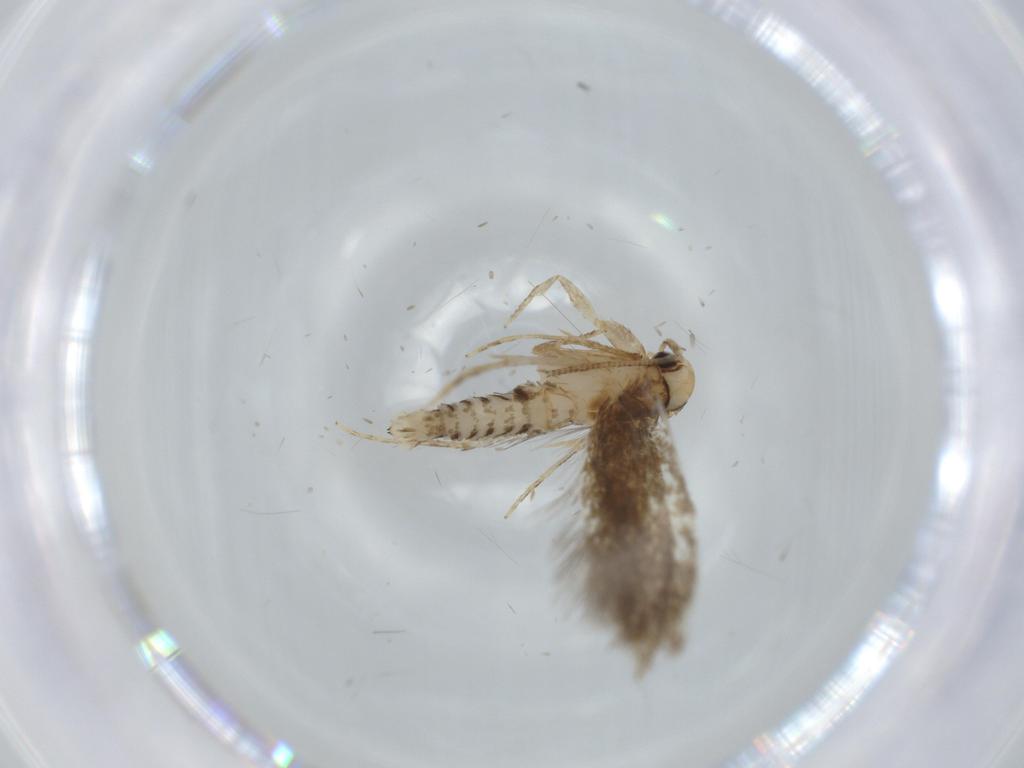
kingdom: Animalia
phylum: Arthropoda
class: Insecta
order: Lepidoptera
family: Tineidae
